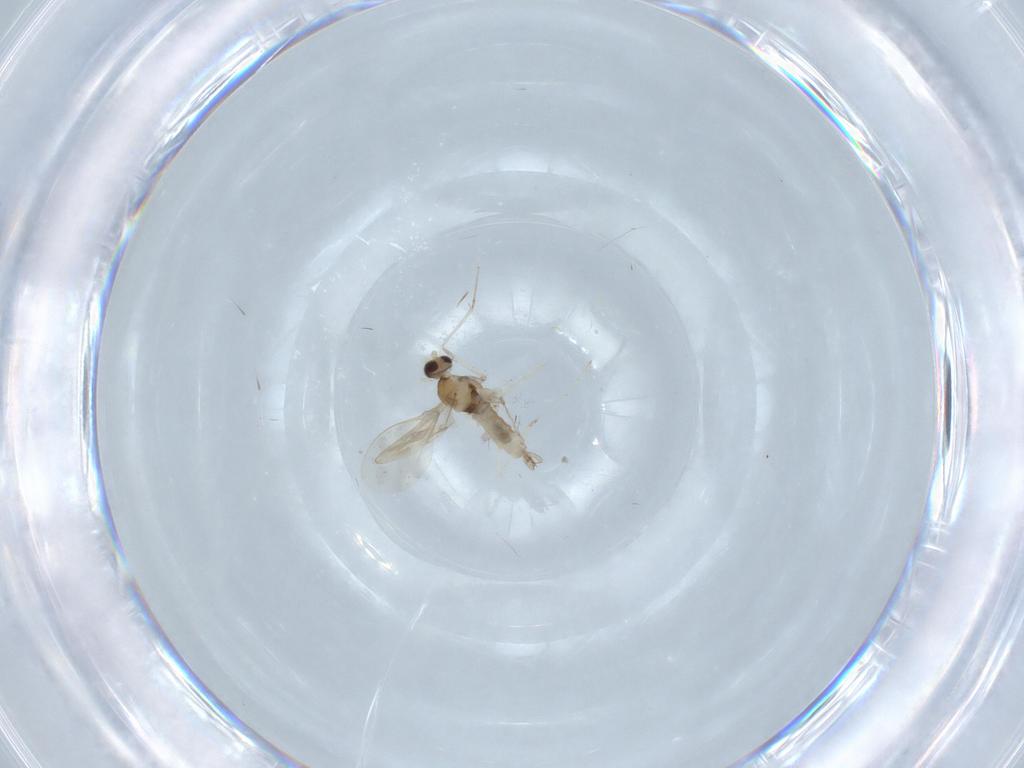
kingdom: Animalia
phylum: Arthropoda
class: Insecta
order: Diptera
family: Cecidomyiidae
